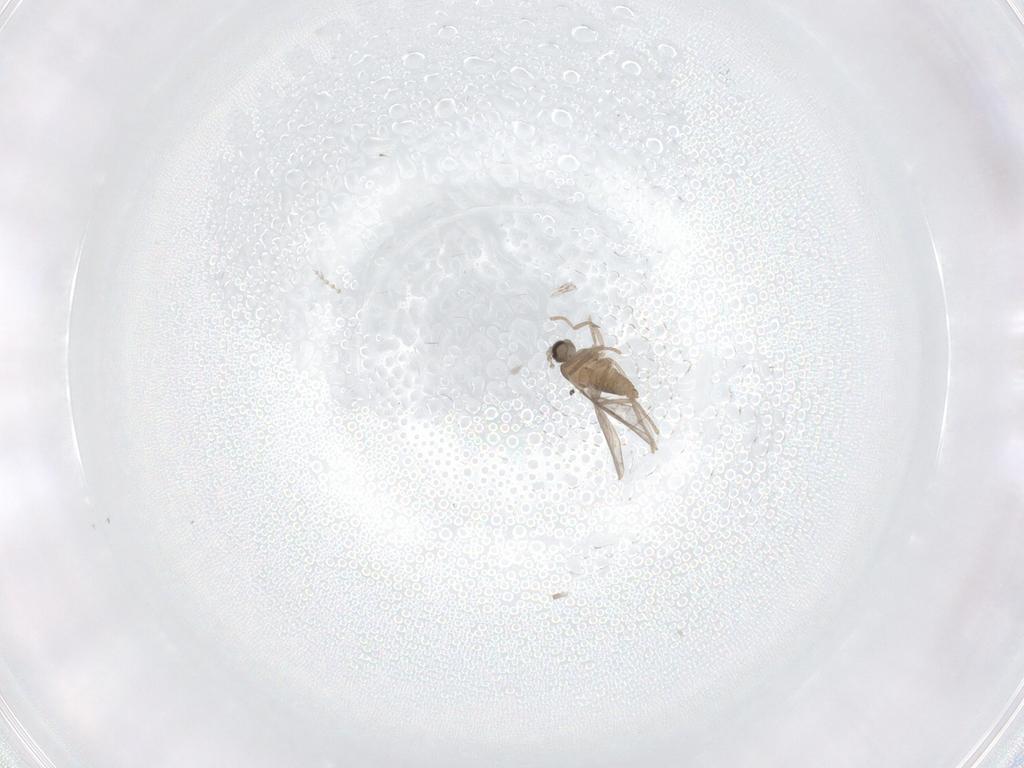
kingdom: Animalia
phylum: Arthropoda
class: Insecta
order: Diptera
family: Cecidomyiidae
